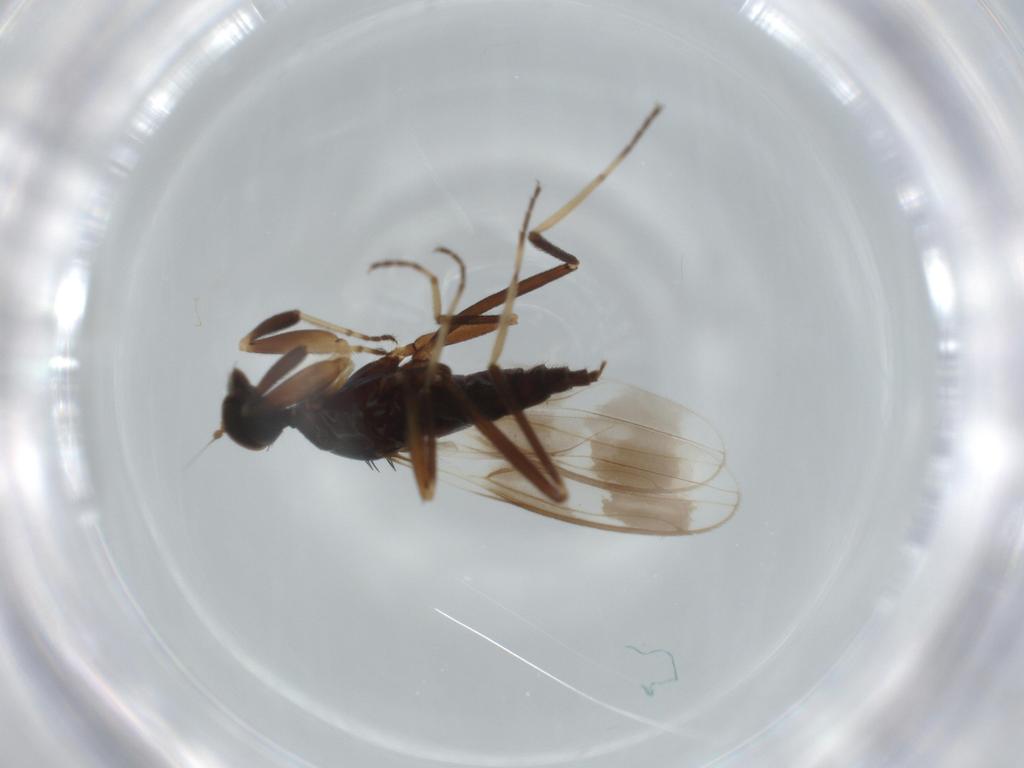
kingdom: Animalia
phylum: Arthropoda
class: Insecta
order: Diptera
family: Hybotidae
